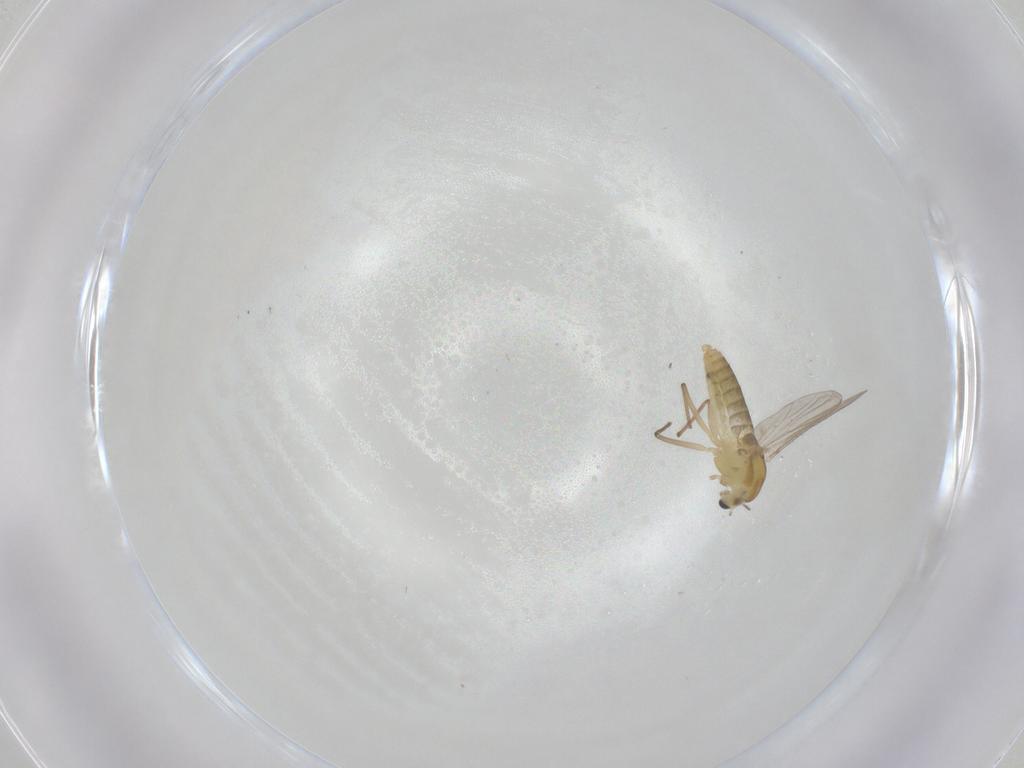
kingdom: Animalia
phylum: Arthropoda
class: Insecta
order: Diptera
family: Chironomidae
